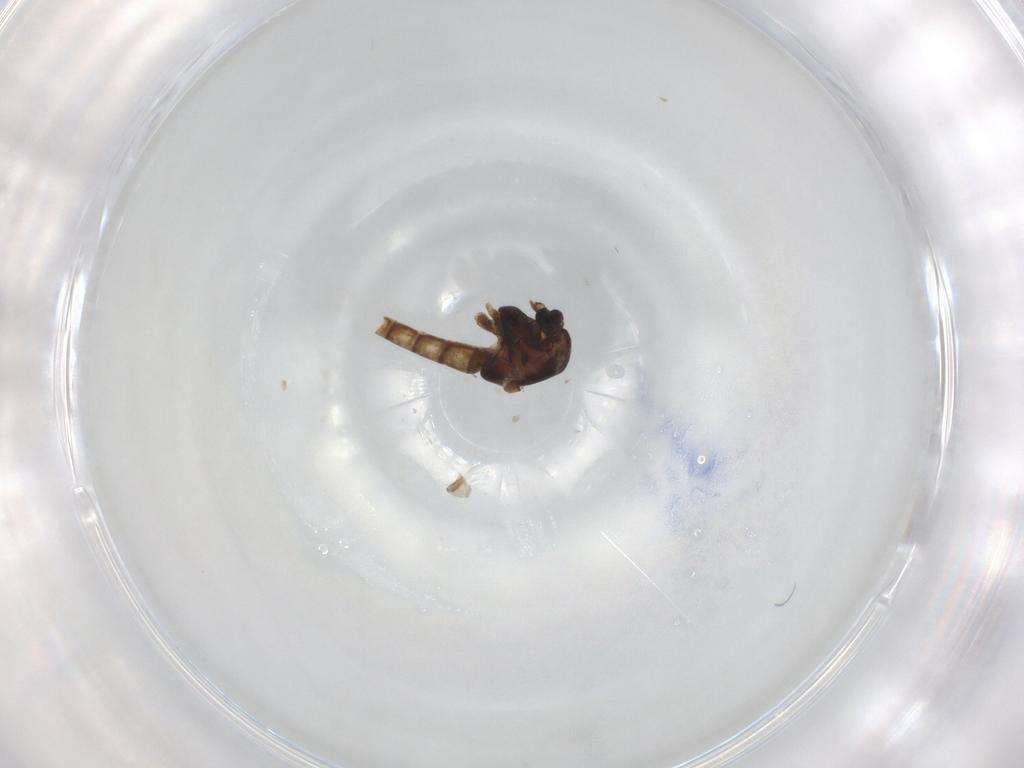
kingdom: Animalia
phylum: Arthropoda
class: Insecta
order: Diptera
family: Chironomidae
